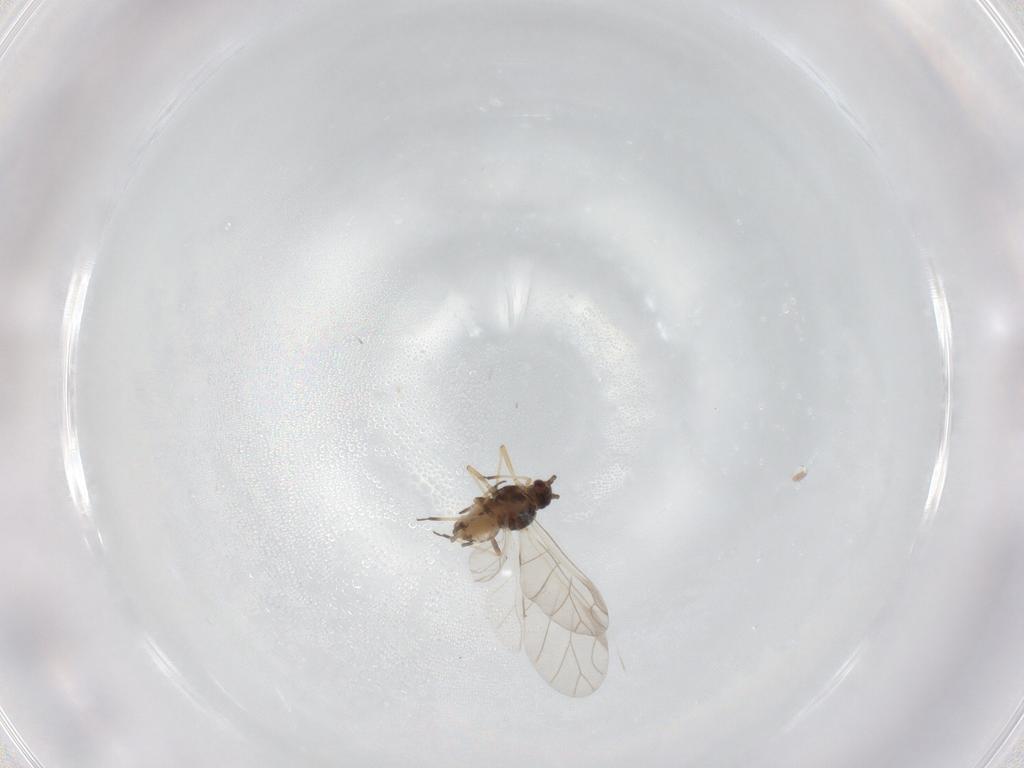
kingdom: Animalia
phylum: Arthropoda
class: Insecta
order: Hemiptera
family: Aphididae
